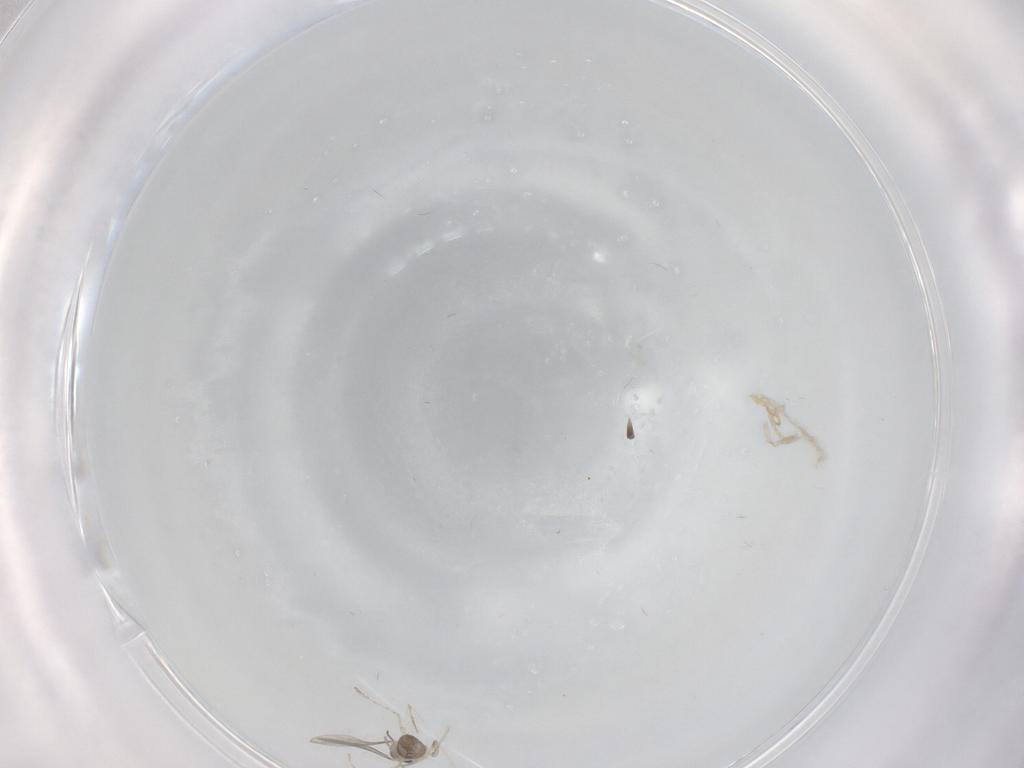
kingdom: Animalia
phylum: Arthropoda
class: Insecta
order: Diptera
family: Chironomidae
